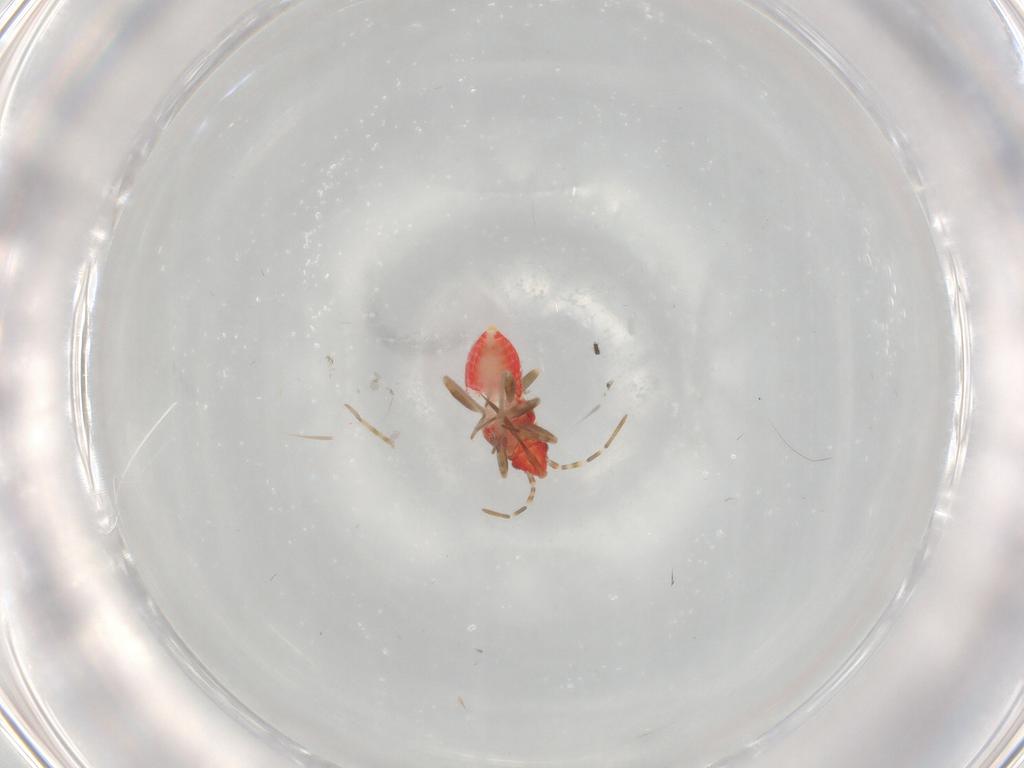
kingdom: Animalia
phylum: Arthropoda
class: Insecta
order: Hemiptera
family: Miridae
